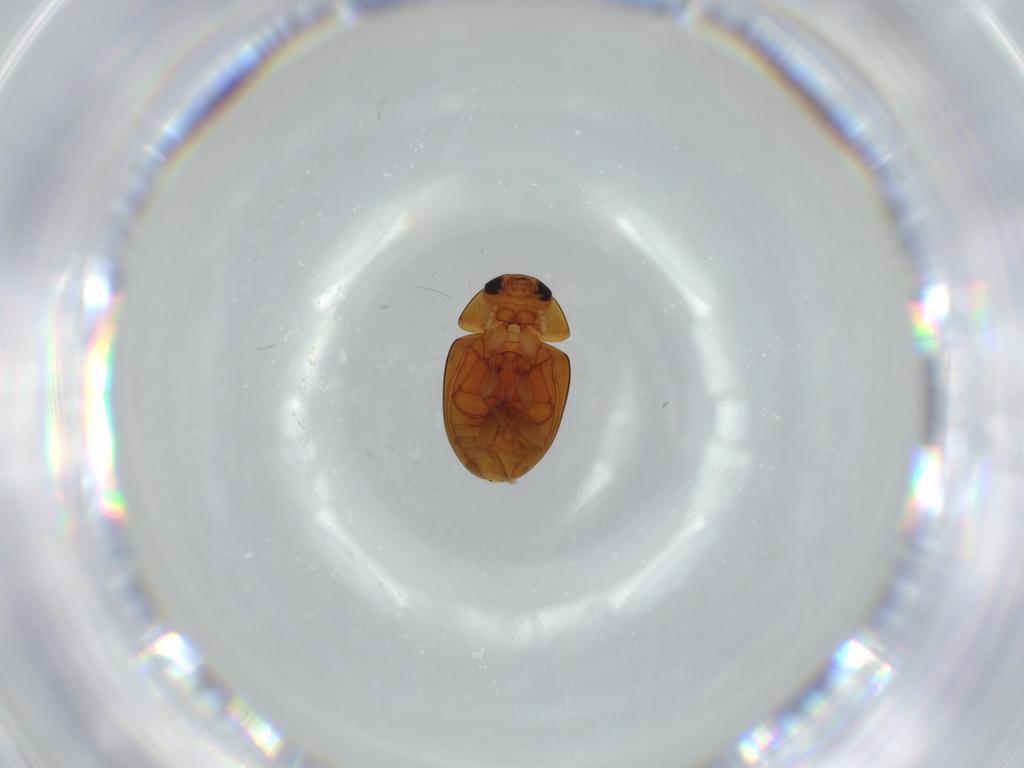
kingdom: Animalia
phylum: Arthropoda
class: Insecta
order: Coleoptera
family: Phalacridae
